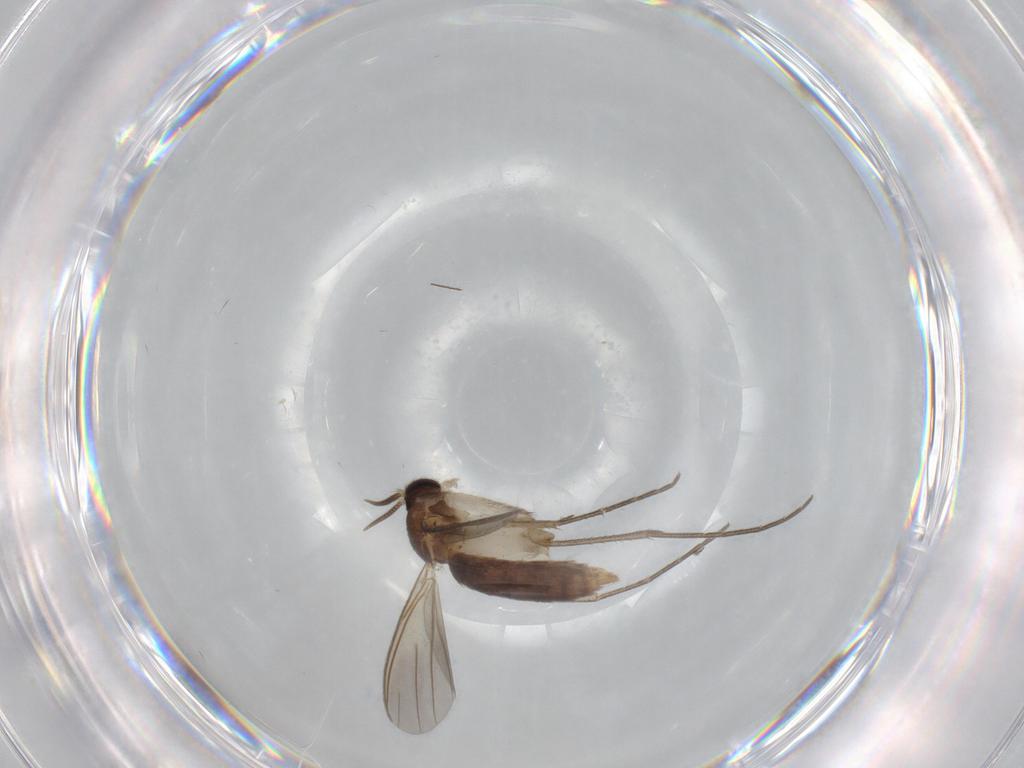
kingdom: Animalia
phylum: Arthropoda
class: Insecta
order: Diptera
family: Mycetophilidae
